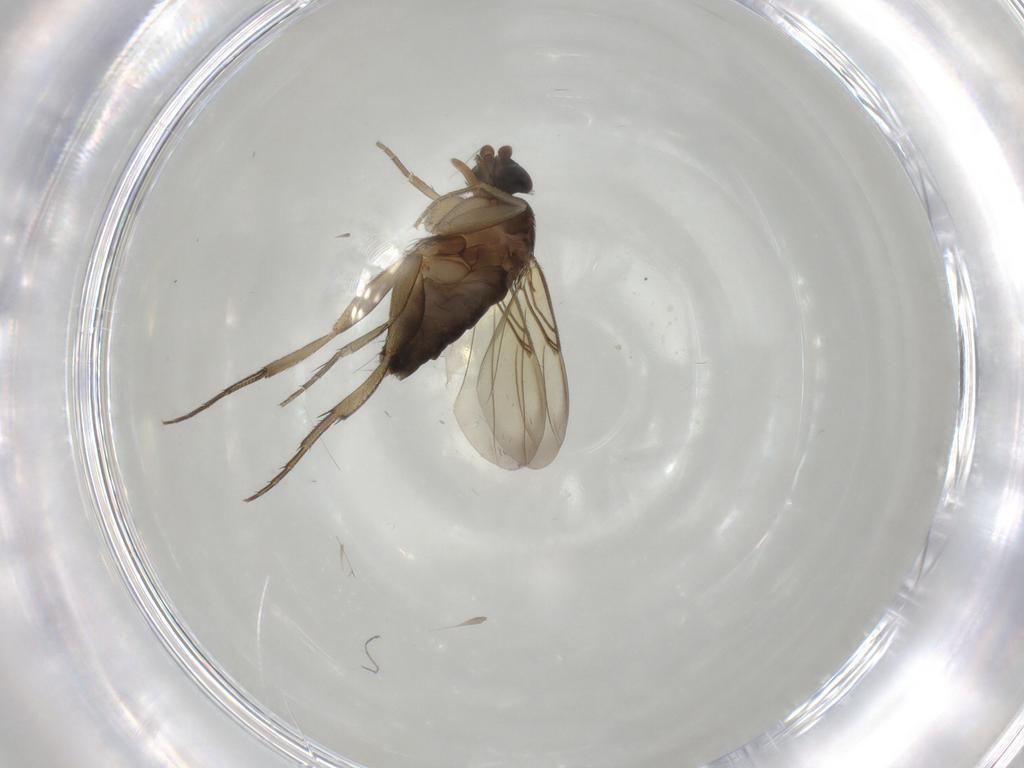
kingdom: Animalia
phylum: Arthropoda
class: Insecta
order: Diptera
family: Phoridae
